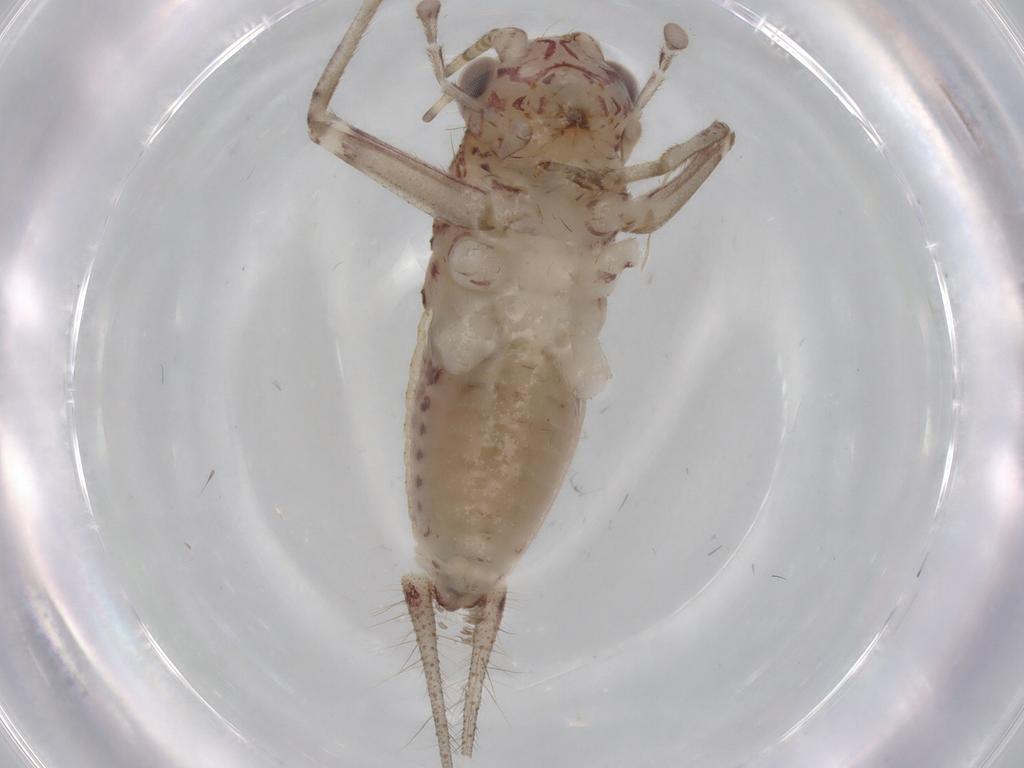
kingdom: Animalia
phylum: Arthropoda
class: Insecta
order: Orthoptera
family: Trigonidiidae
